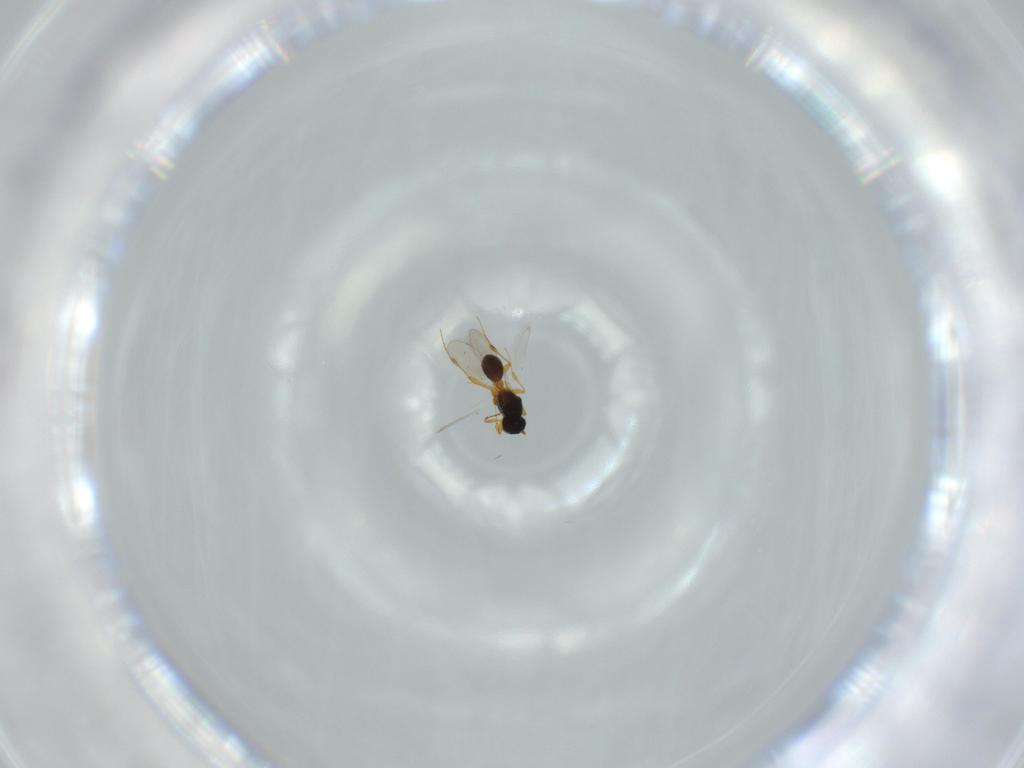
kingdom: Animalia
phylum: Arthropoda
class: Insecta
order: Hymenoptera
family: Platygastridae
